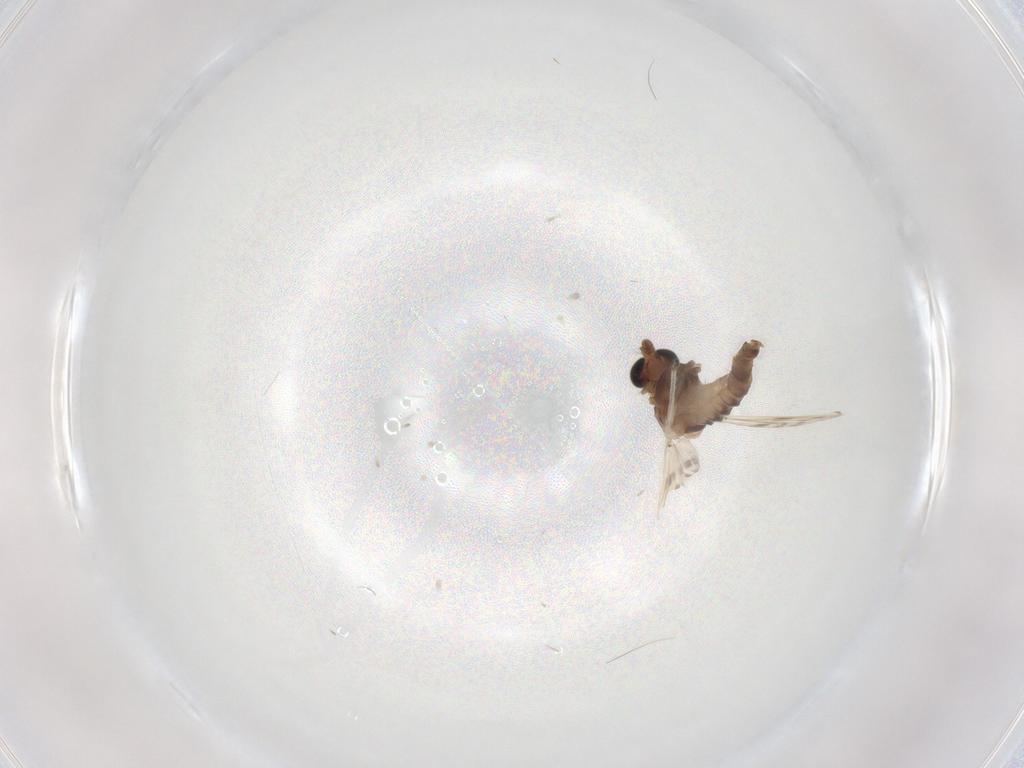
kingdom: Animalia
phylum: Arthropoda
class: Insecta
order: Diptera
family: Chironomidae
